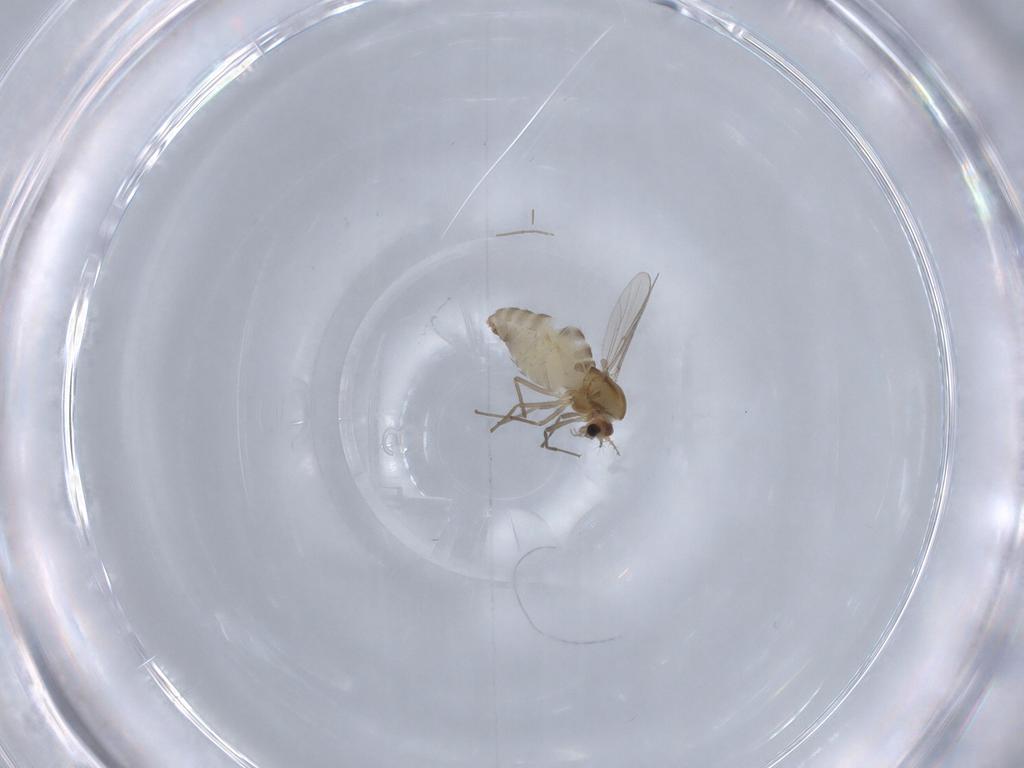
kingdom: Animalia
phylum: Arthropoda
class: Insecta
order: Diptera
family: Chironomidae
